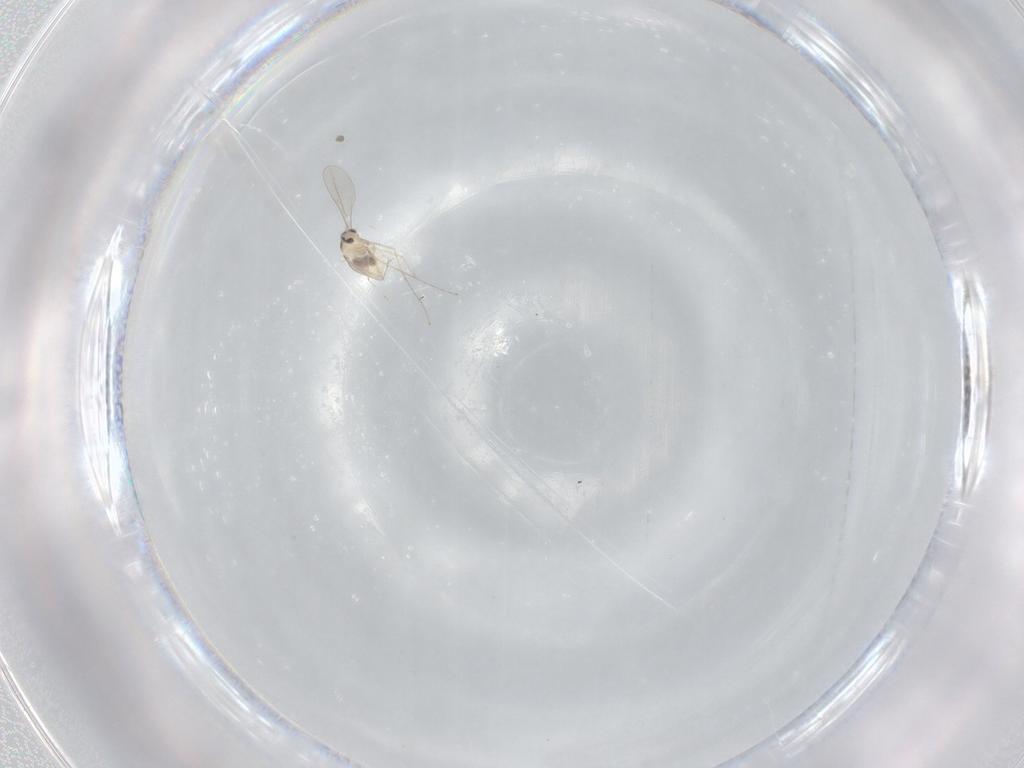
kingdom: Animalia
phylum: Arthropoda
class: Insecta
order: Diptera
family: Cecidomyiidae
